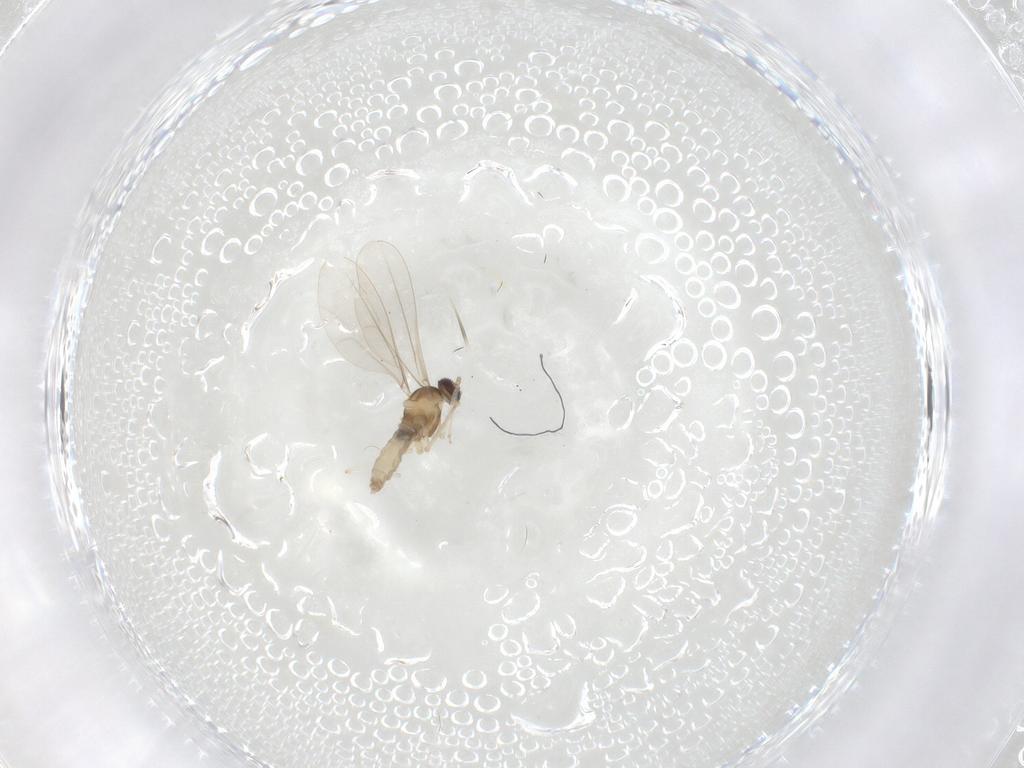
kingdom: Animalia
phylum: Arthropoda
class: Insecta
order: Diptera
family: Cecidomyiidae
